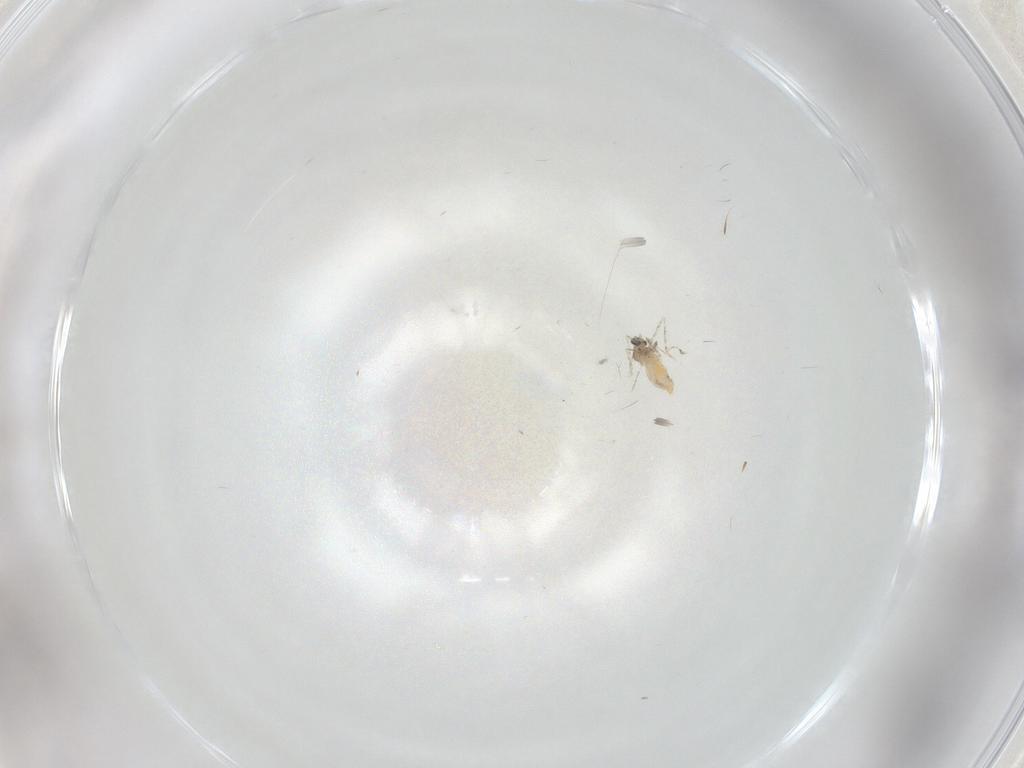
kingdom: Animalia
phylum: Arthropoda
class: Insecta
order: Diptera
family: Cecidomyiidae
